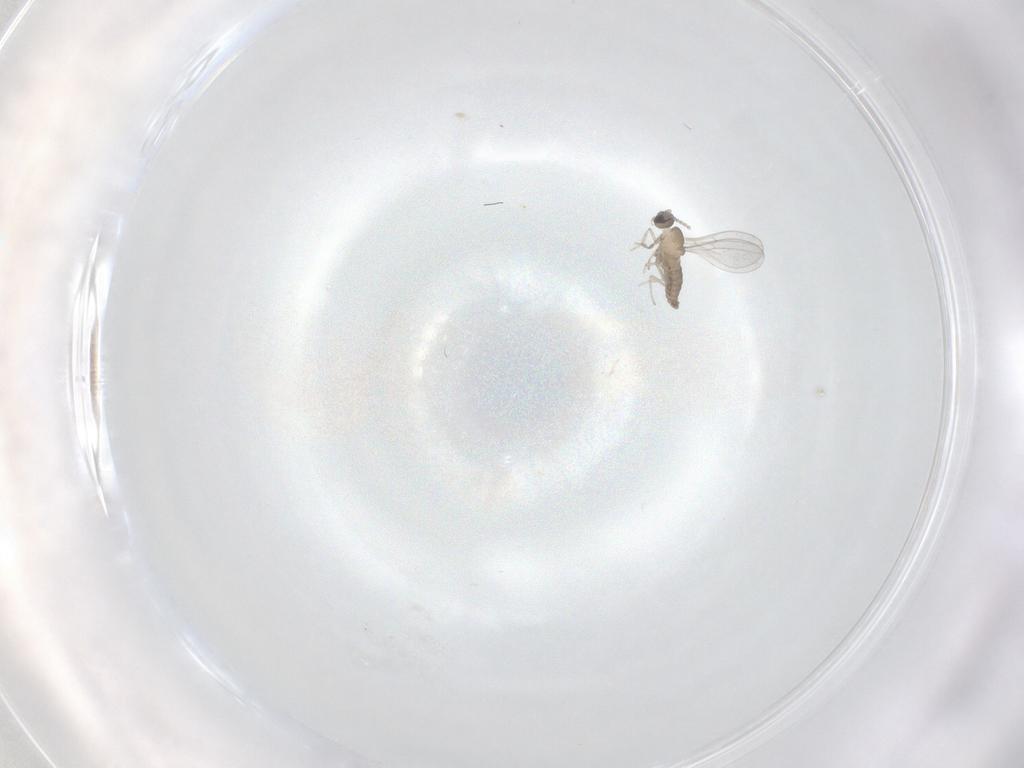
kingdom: Animalia
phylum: Arthropoda
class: Insecta
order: Diptera
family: Cecidomyiidae
